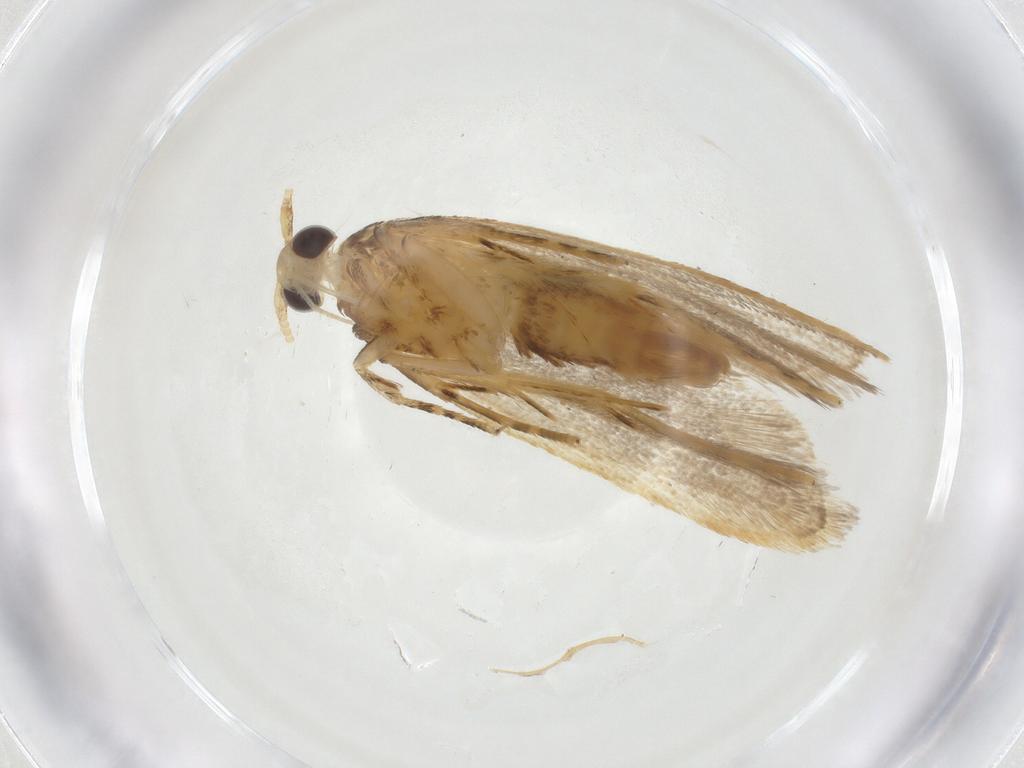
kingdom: Animalia
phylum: Arthropoda
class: Insecta
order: Lepidoptera
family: Lecithoceridae
